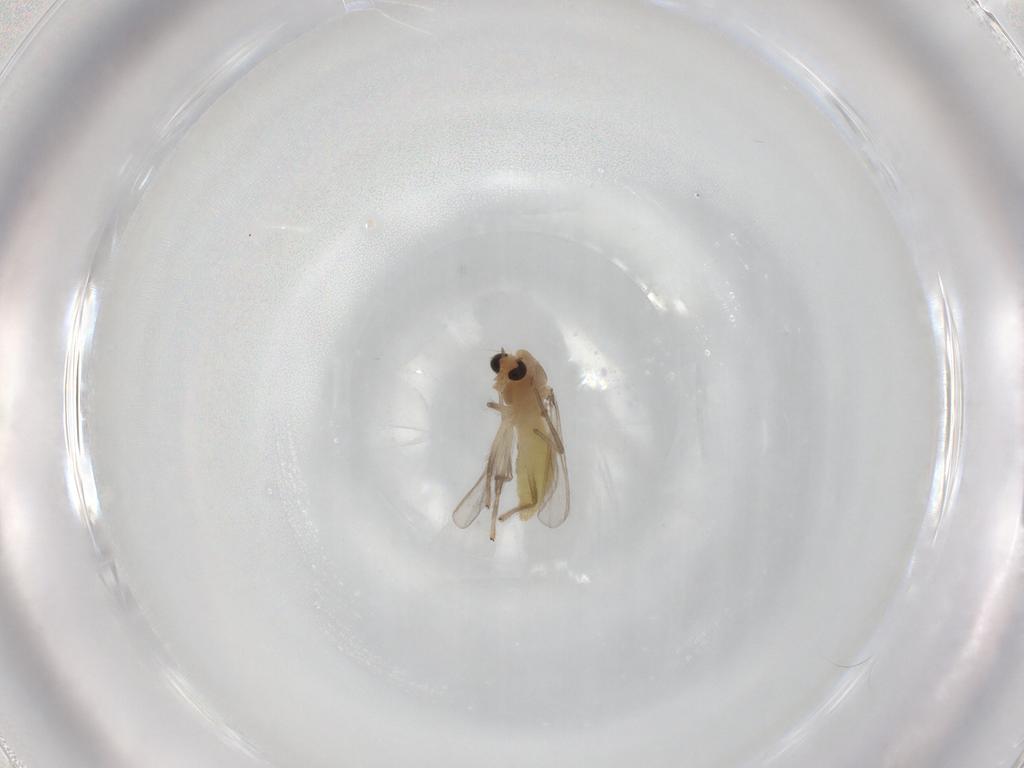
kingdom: Animalia
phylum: Arthropoda
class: Insecta
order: Diptera
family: Chironomidae
